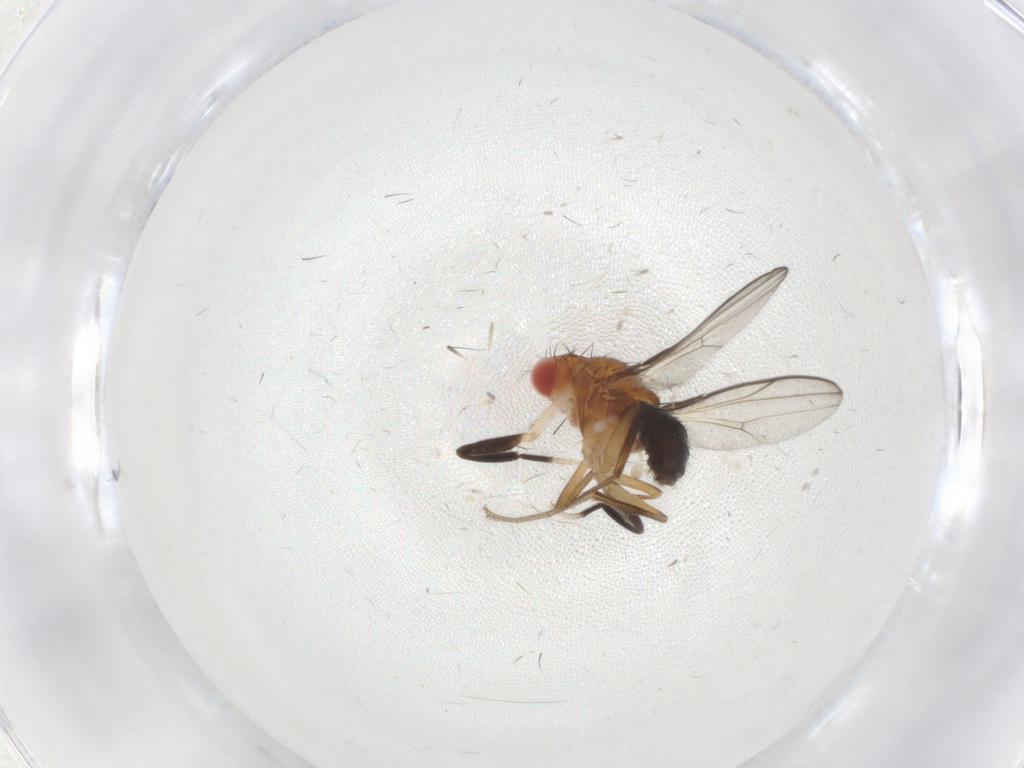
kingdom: Animalia
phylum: Arthropoda
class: Insecta
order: Diptera
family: Drosophilidae
